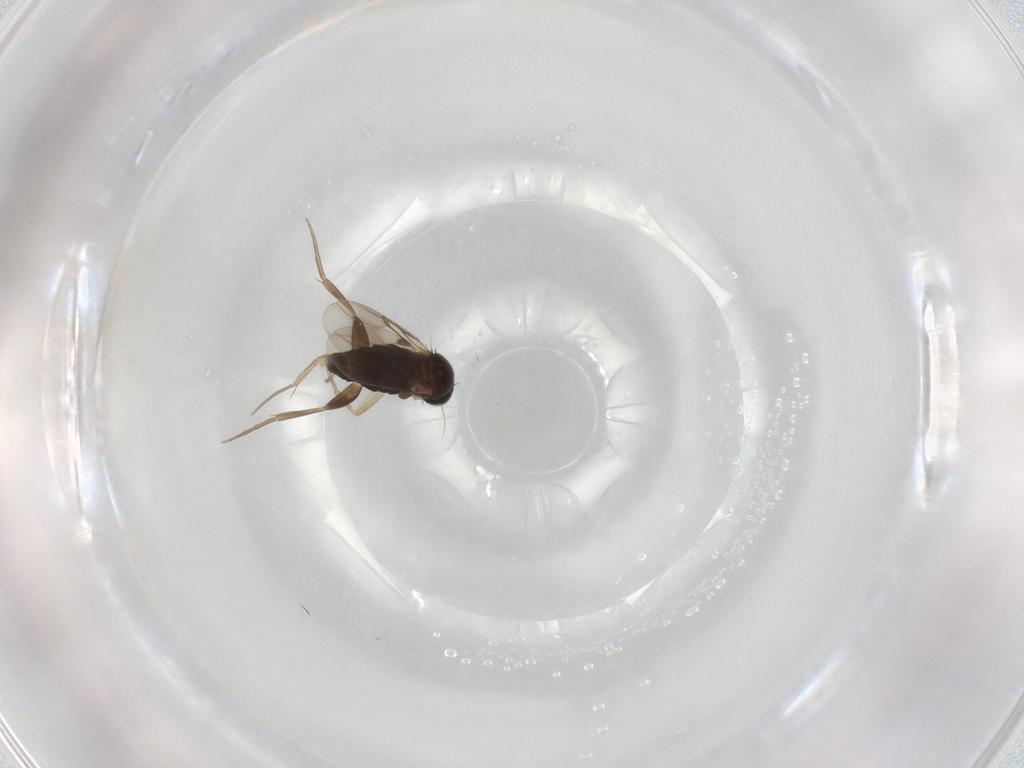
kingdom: Animalia
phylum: Arthropoda
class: Insecta
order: Diptera
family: Phoridae
